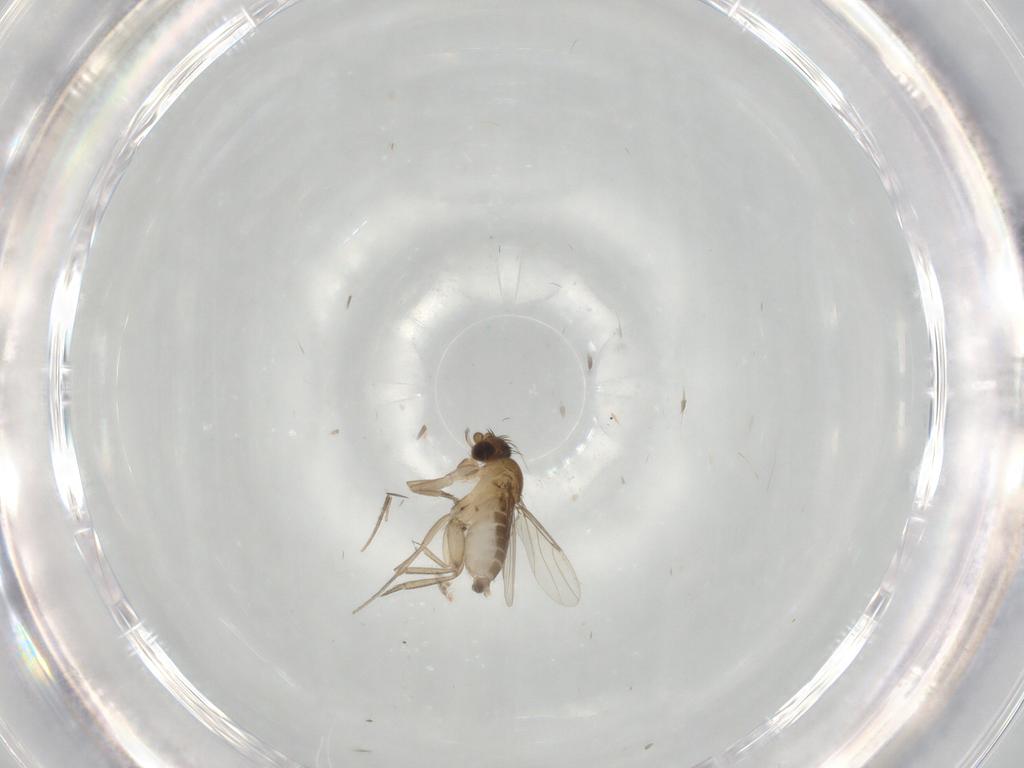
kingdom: Animalia
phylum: Arthropoda
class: Insecta
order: Diptera
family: Phoridae
